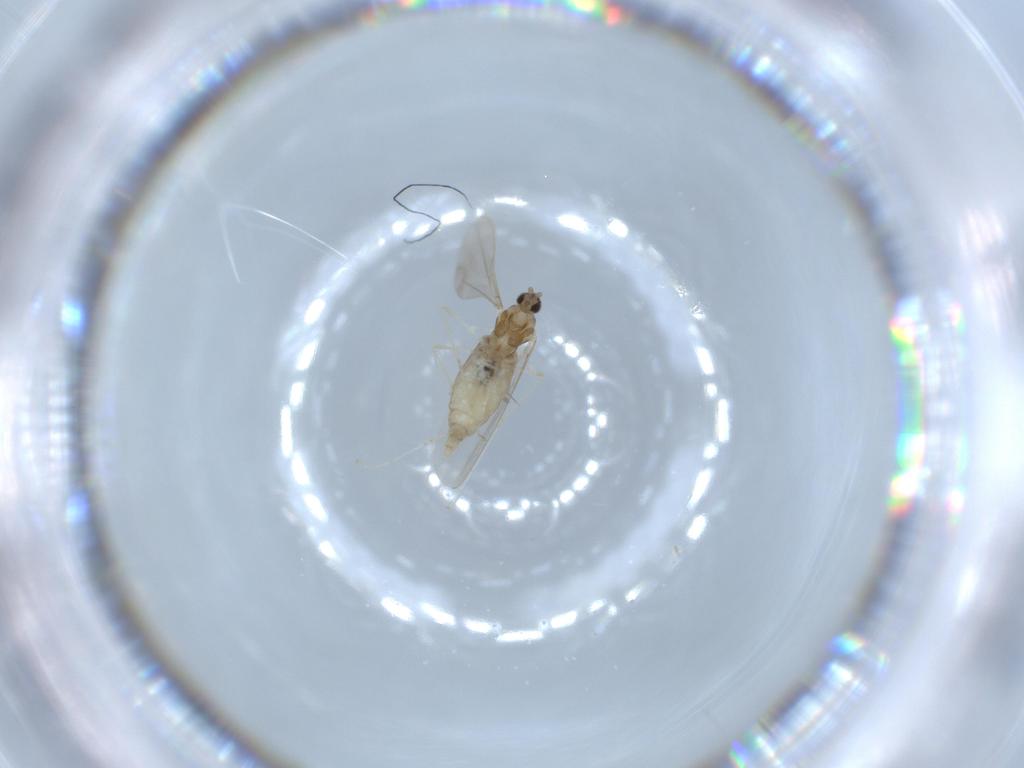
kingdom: Animalia
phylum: Arthropoda
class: Insecta
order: Diptera
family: Cecidomyiidae
